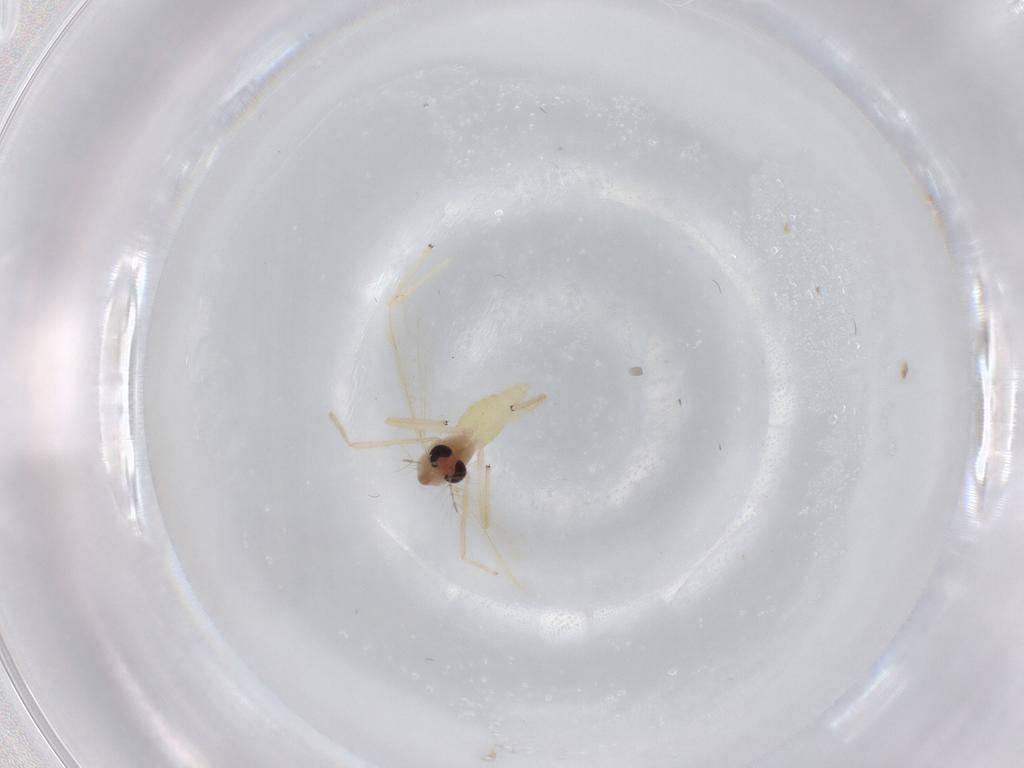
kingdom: Animalia
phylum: Arthropoda
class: Insecta
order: Diptera
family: Chironomidae
